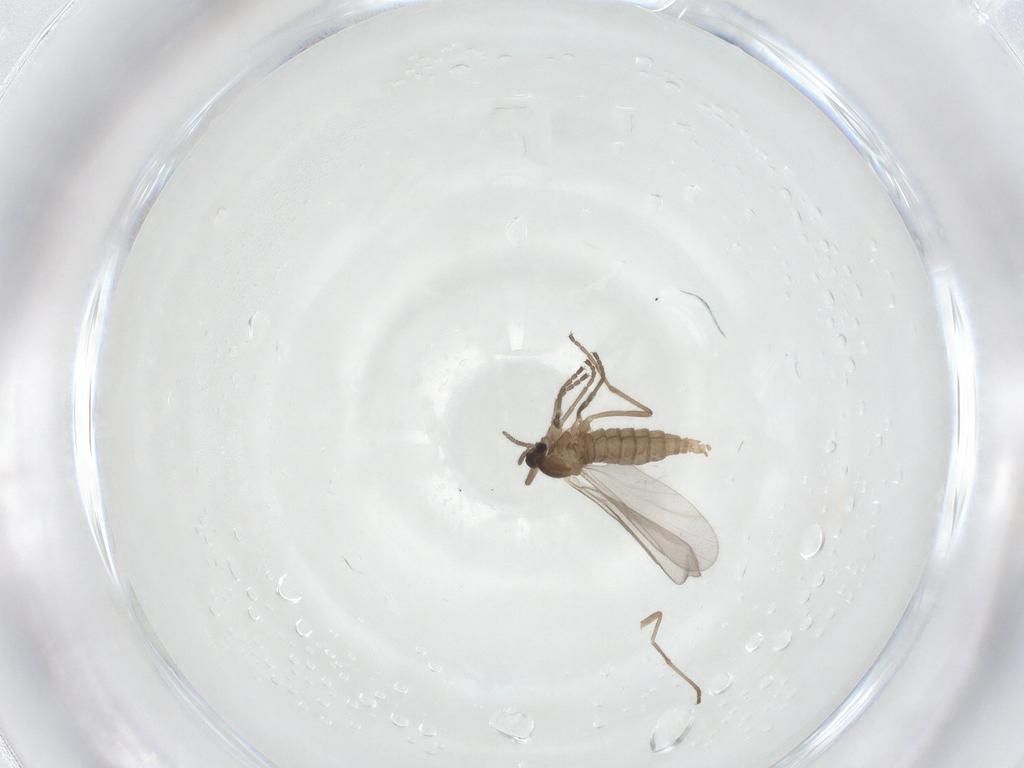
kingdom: Animalia
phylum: Arthropoda
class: Insecta
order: Diptera
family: Cecidomyiidae
